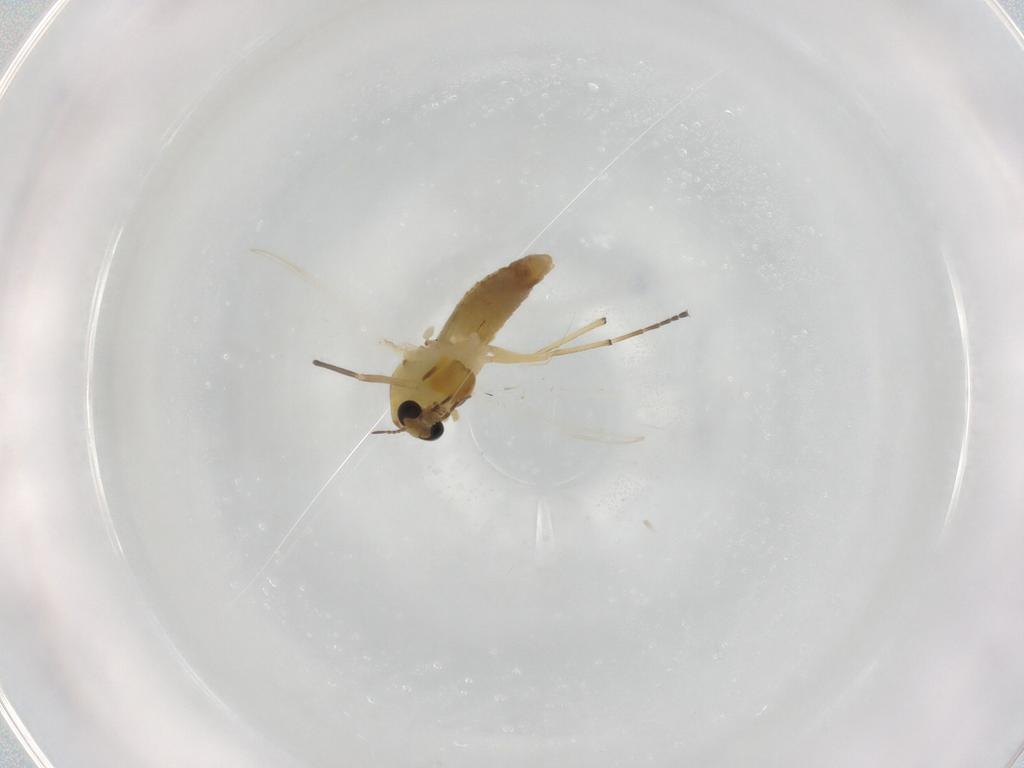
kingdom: Animalia
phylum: Arthropoda
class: Insecta
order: Diptera
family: Chironomidae
